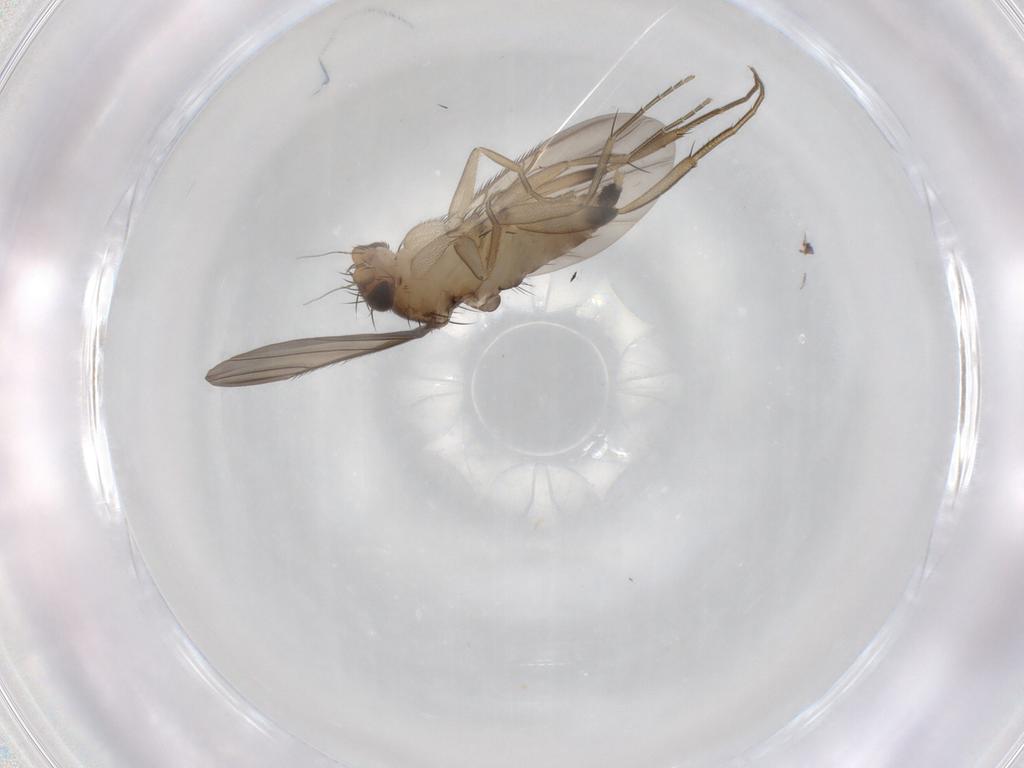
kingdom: Animalia
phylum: Arthropoda
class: Insecta
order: Diptera
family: Phoridae
